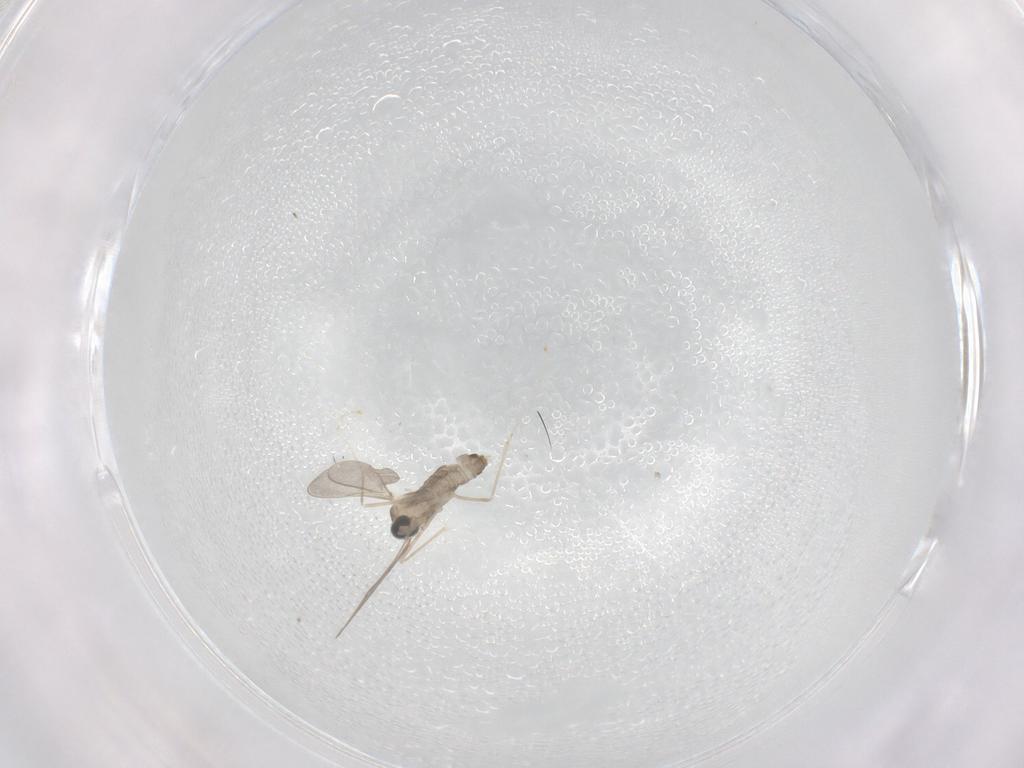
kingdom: Animalia
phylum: Arthropoda
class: Insecta
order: Diptera
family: Cecidomyiidae
